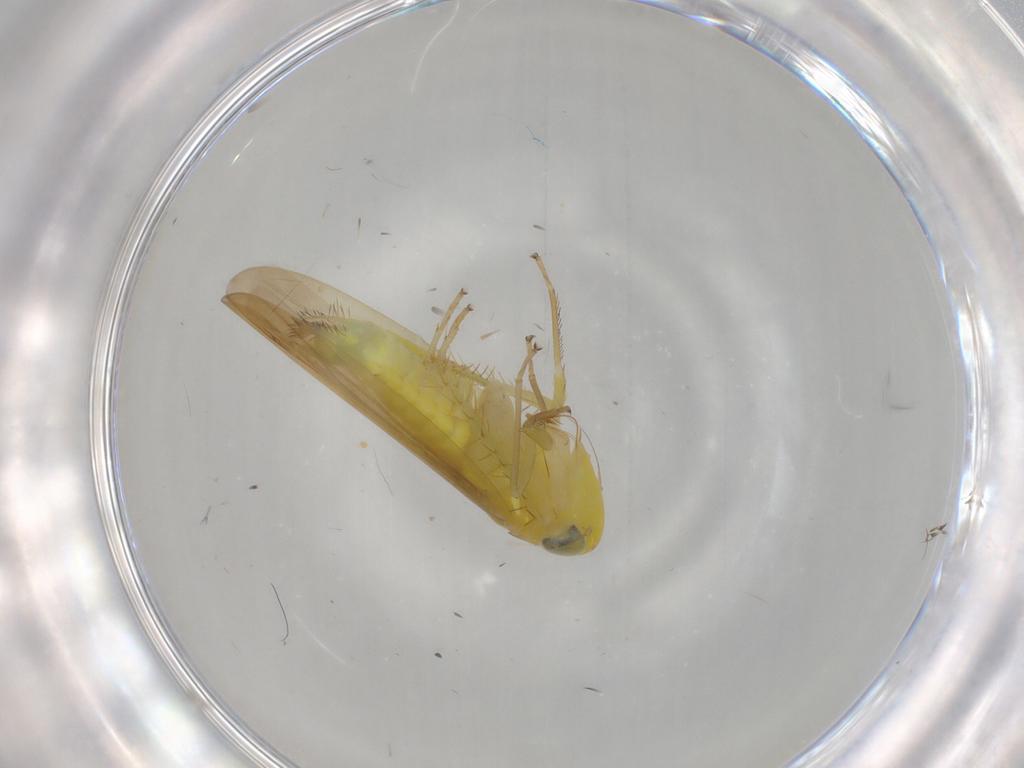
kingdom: Animalia
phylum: Arthropoda
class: Insecta
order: Hemiptera
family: Cicadellidae
